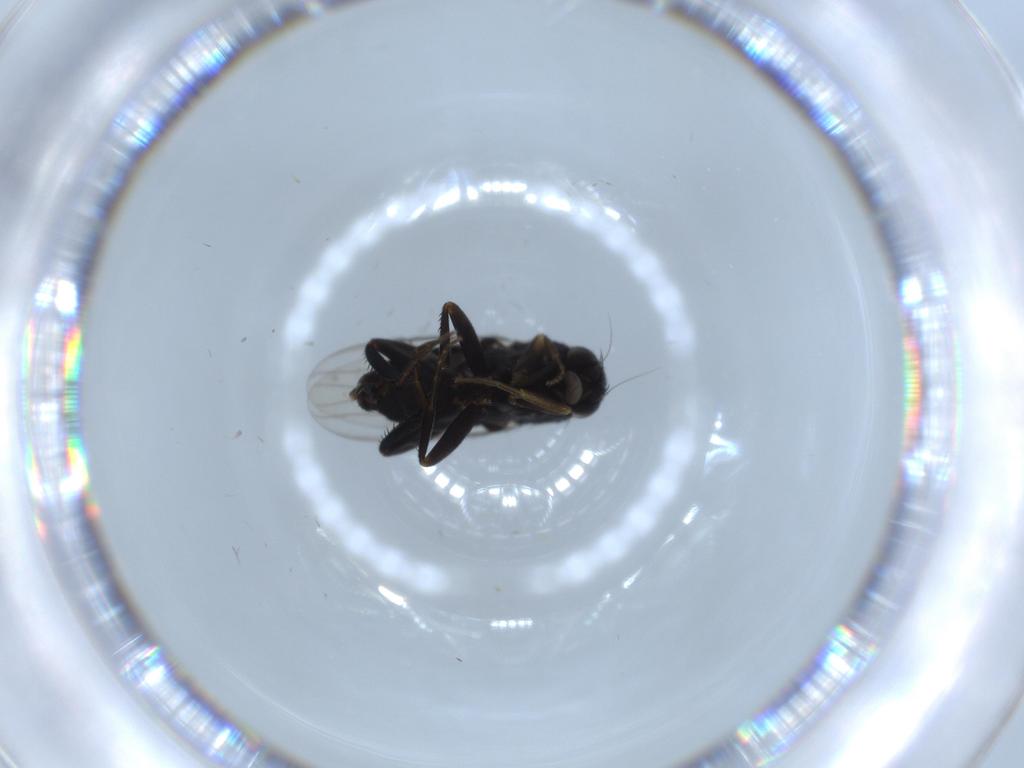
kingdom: Animalia
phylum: Arthropoda
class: Insecta
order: Diptera
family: Phoridae
